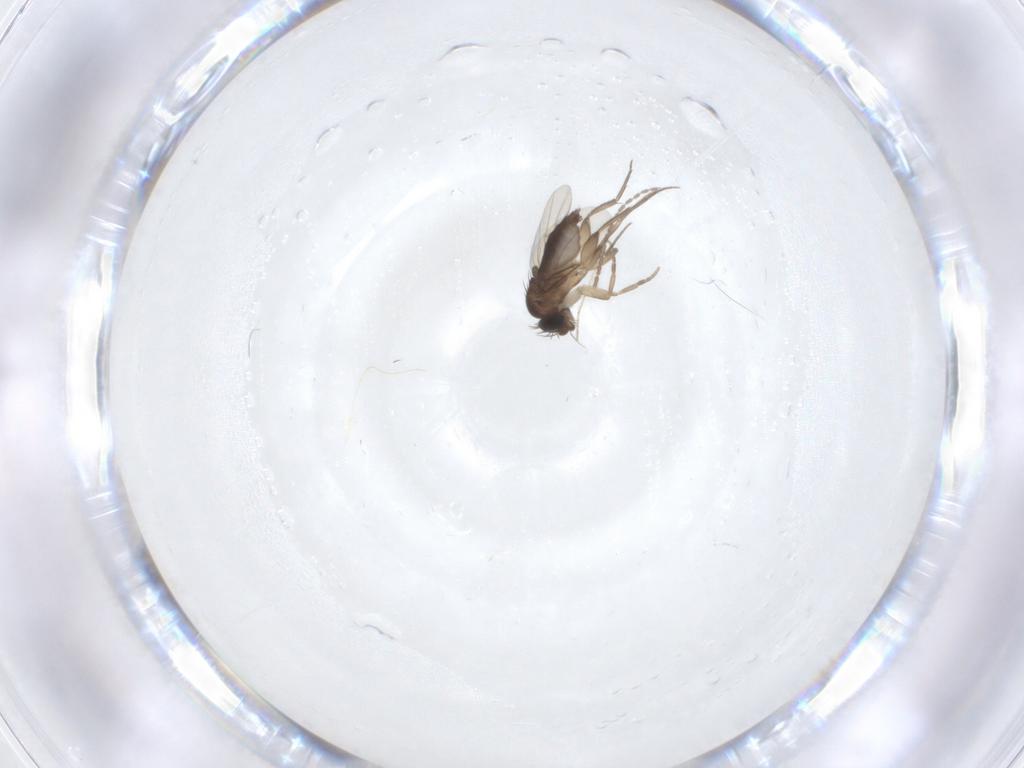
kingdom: Animalia
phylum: Arthropoda
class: Insecta
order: Diptera
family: Phoridae
